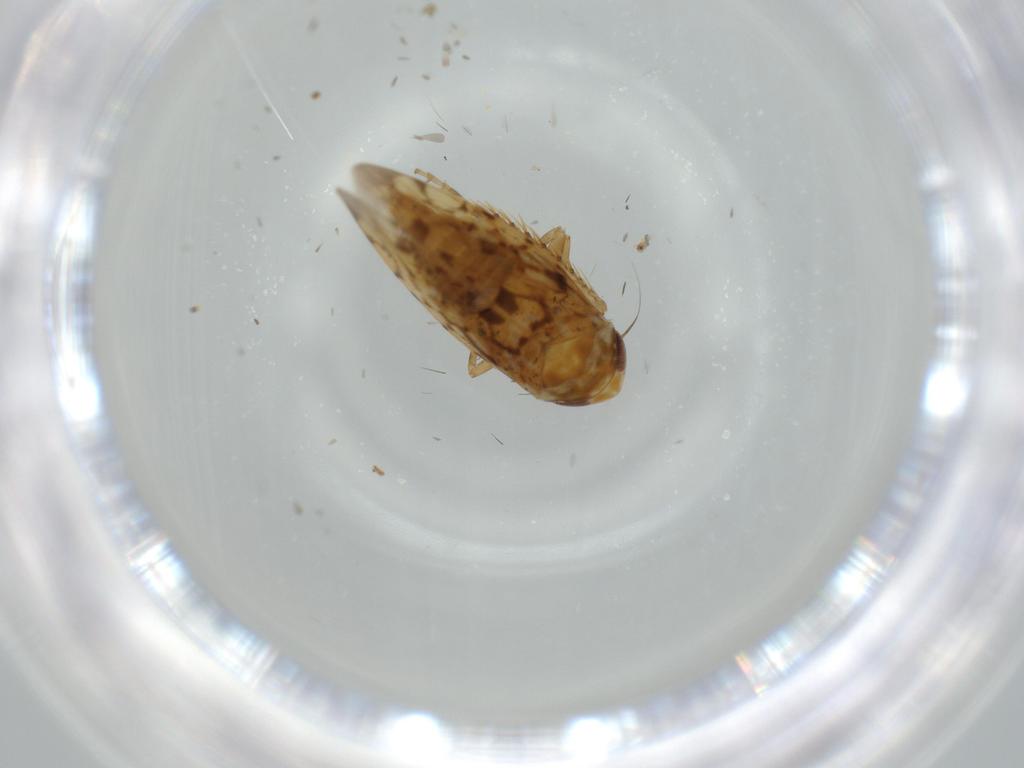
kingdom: Animalia
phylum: Arthropoda
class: Insecta
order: Hemiptera
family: Cicadellidae
